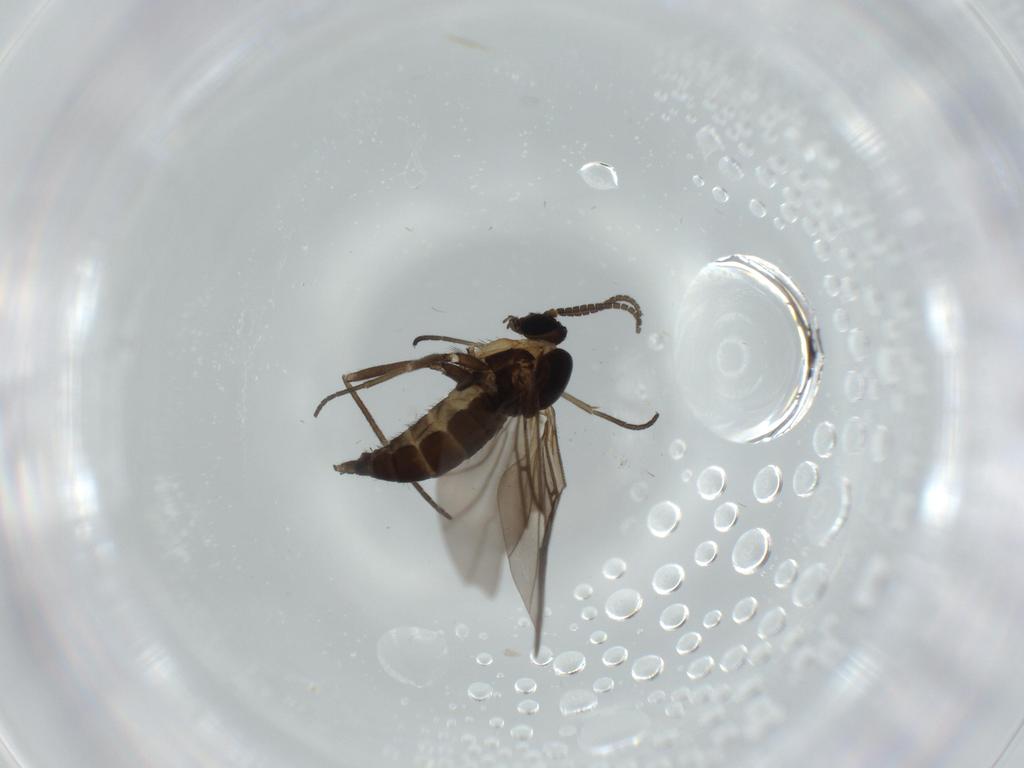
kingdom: Animalia
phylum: Arthropoda
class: Insecta
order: Diptera
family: Sciaridae
